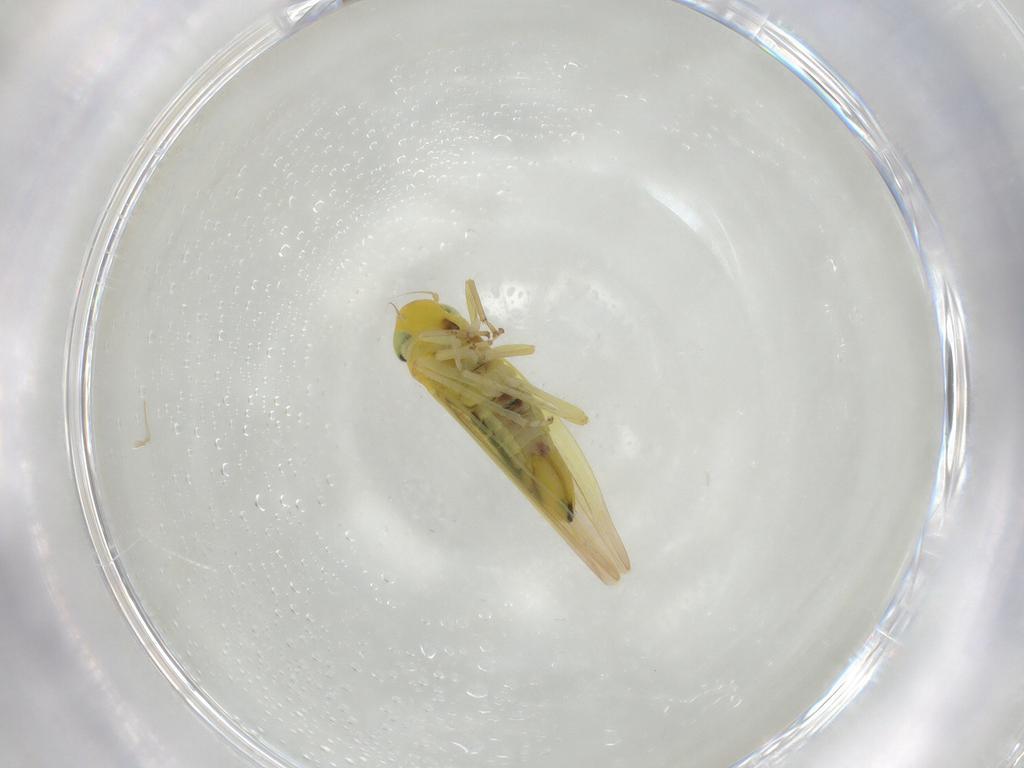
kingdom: Animalia
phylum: Arthropoda
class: Insecta
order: Hemiptera
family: Cicadellidae
